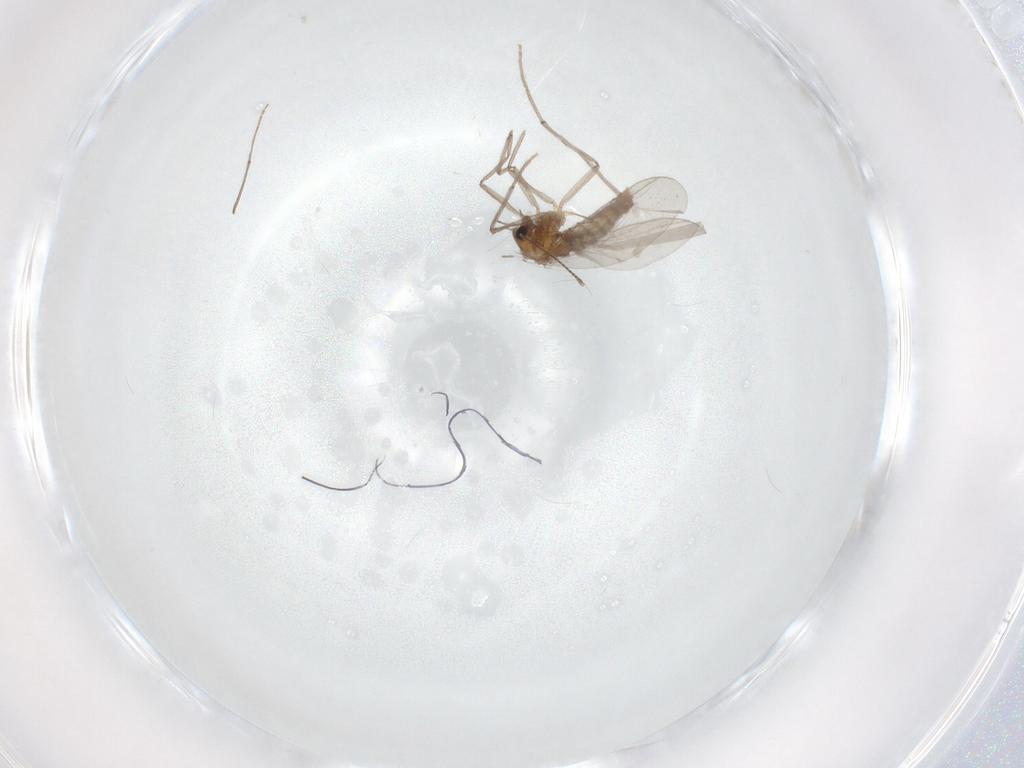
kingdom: Animalia
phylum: Arthropoda
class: Insecta
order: Diptera
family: Chironomidae
